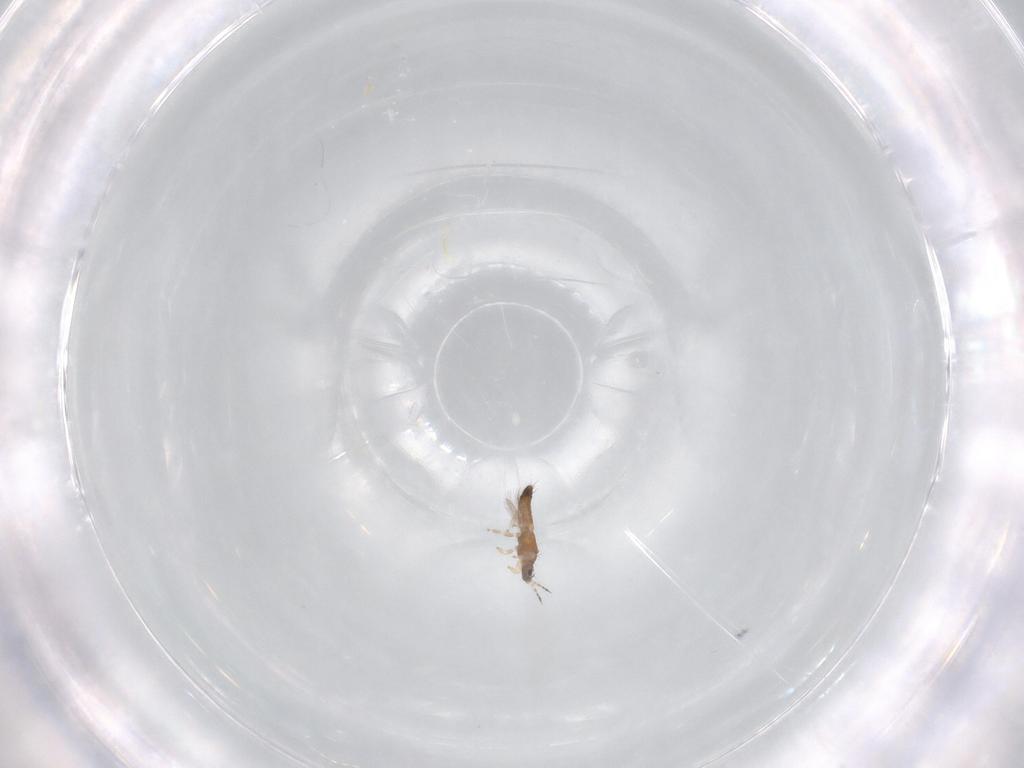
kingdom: Animalia
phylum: Arthropoda
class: Insecta
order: Thysanoptera
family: Thripidae
